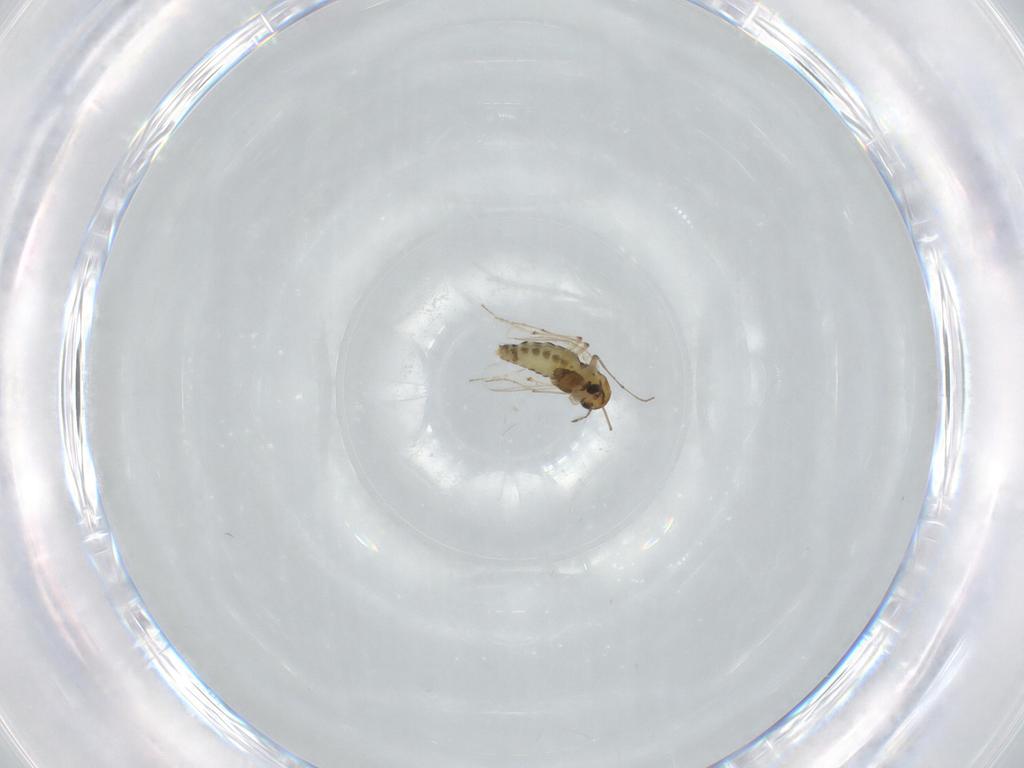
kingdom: Animalia
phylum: Arthropoda
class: Insecta
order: Diptera
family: Chironomidae
